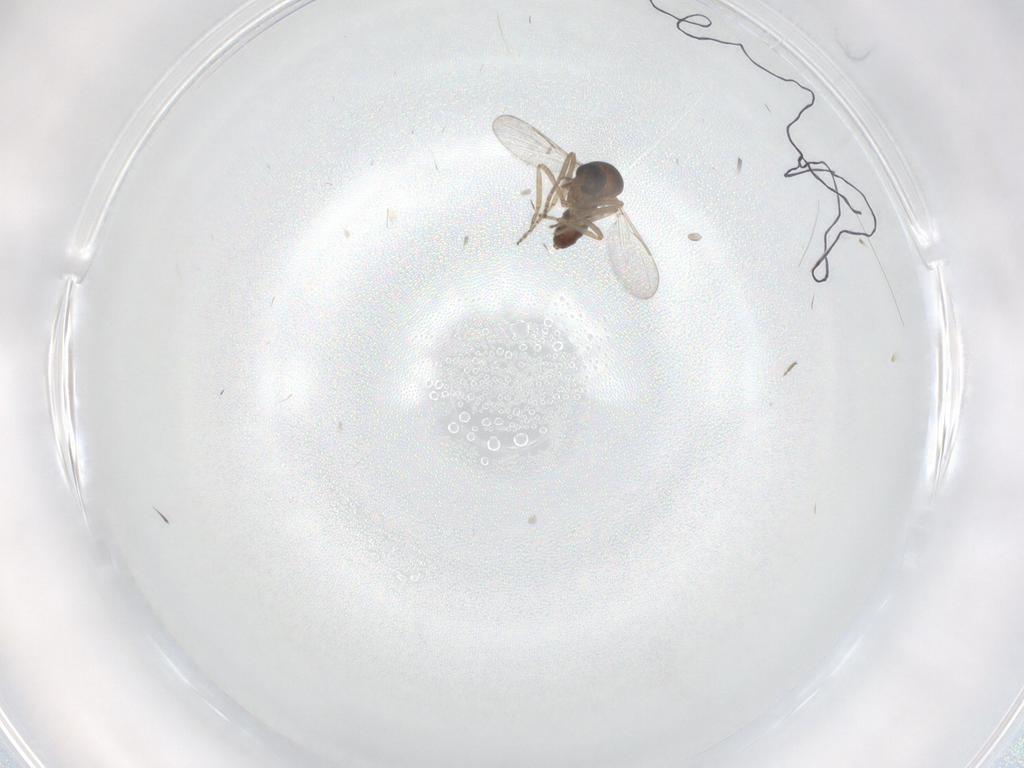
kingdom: Animalia
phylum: Arthropoda
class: Insecta
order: Diptera
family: Ceratopogonidae
